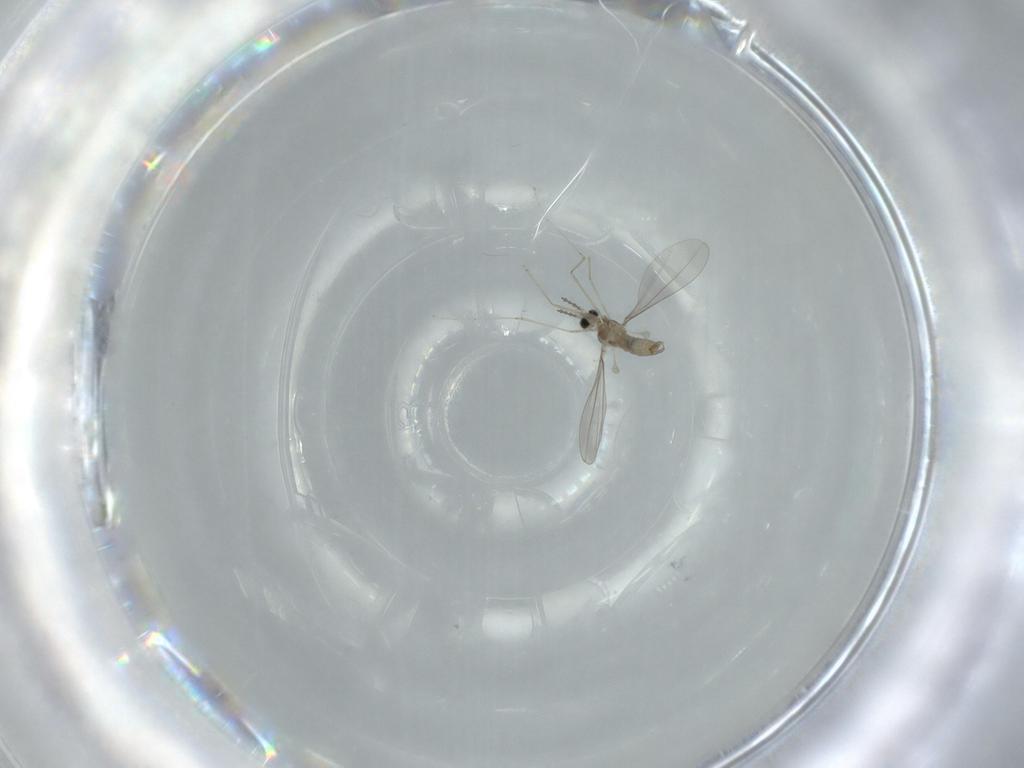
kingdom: Animalia
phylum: Arthropoda
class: Insecta
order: Diptera
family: Cecidomyiidae
